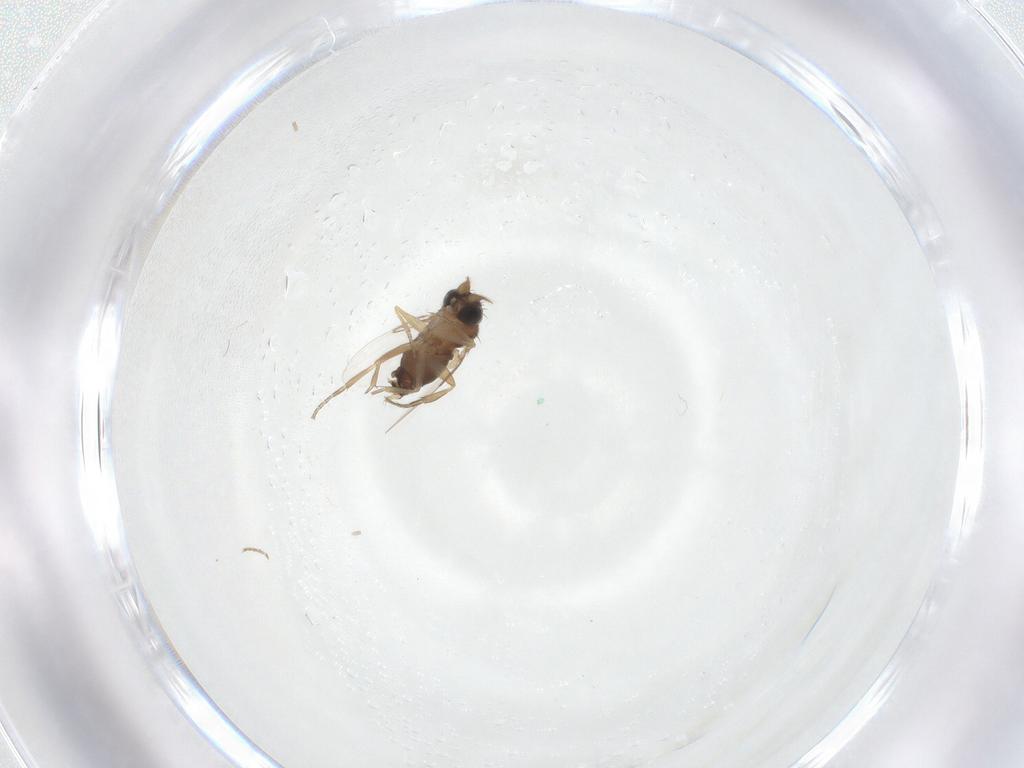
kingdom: Animalia
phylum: Arthropoda
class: Insecta
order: Diptera
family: Phoridae
